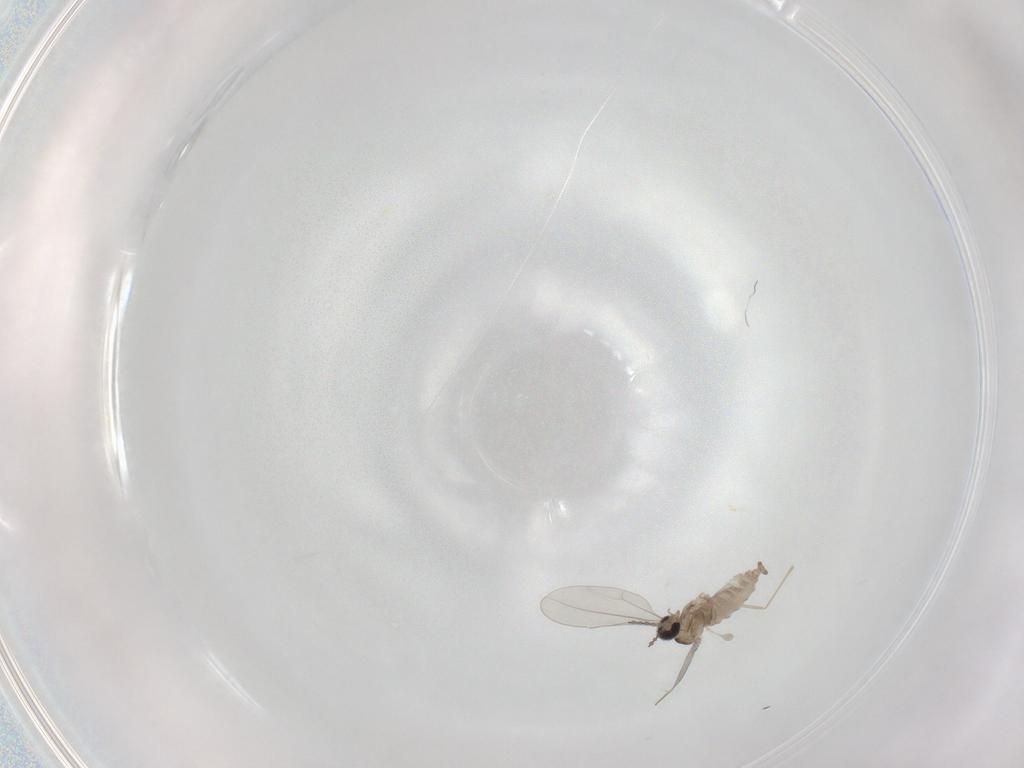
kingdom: Animalia
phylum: Arthropoda
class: Insecta
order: Diptera
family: Cecidomyiidae
